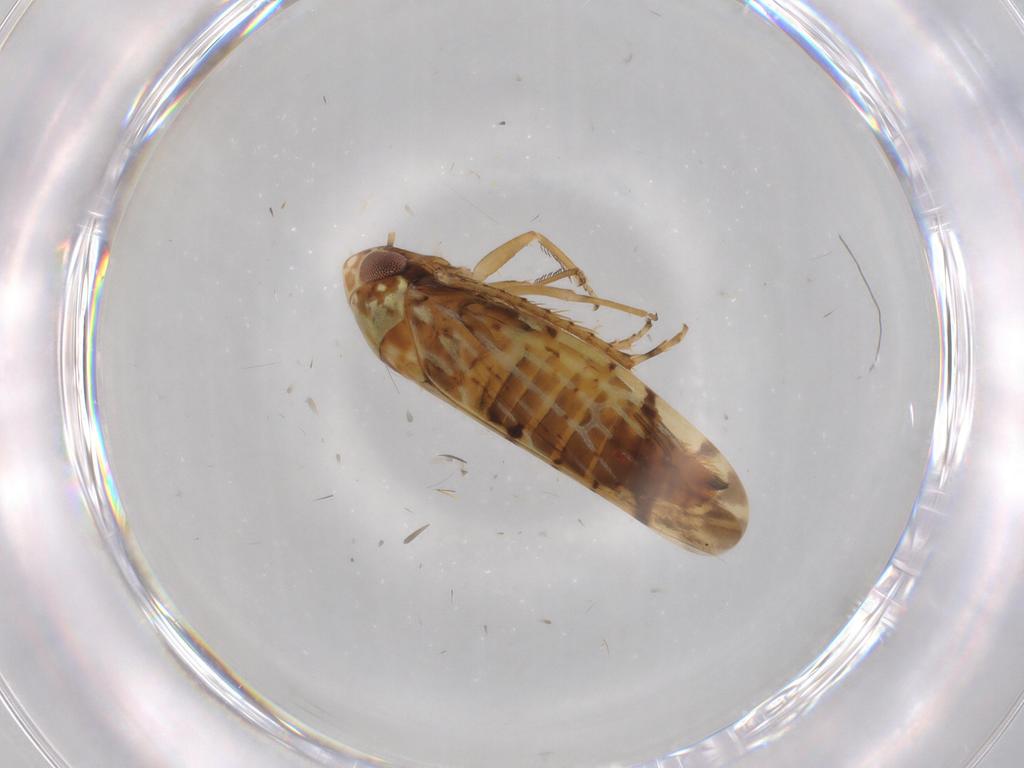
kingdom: Animalia
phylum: Arthropoda
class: Insecta
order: Hemiptera
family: Cicadellidae
